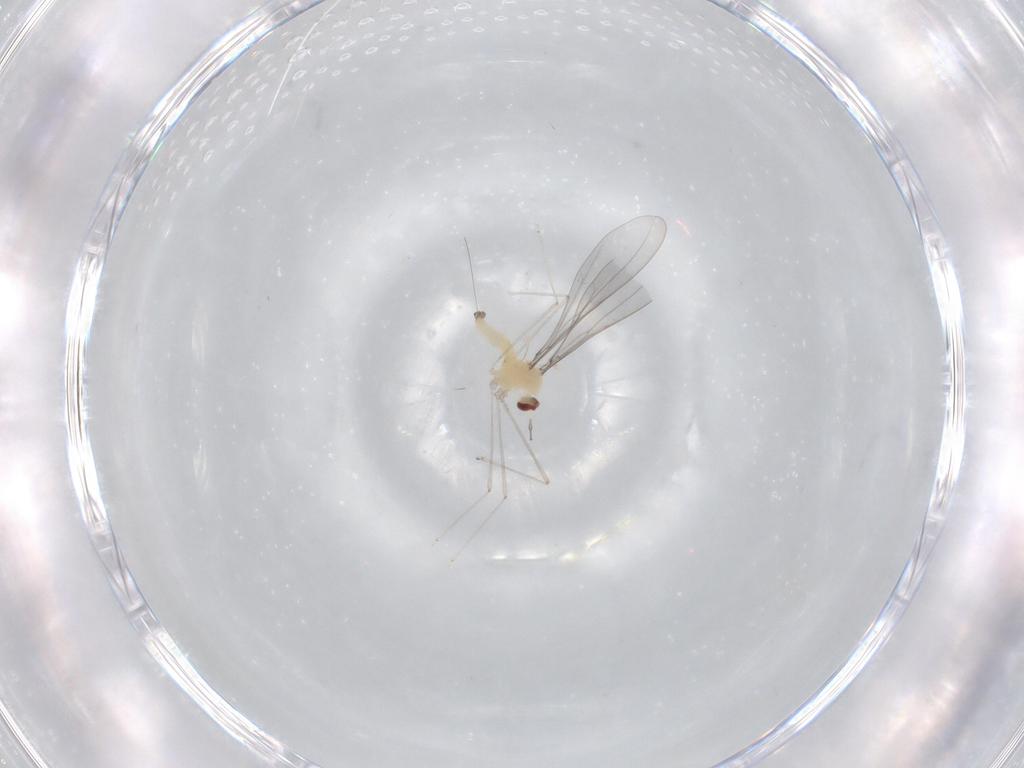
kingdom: Animalia
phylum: Arthropoda
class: Insecta
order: Diptera
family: Cecidomyiidae
